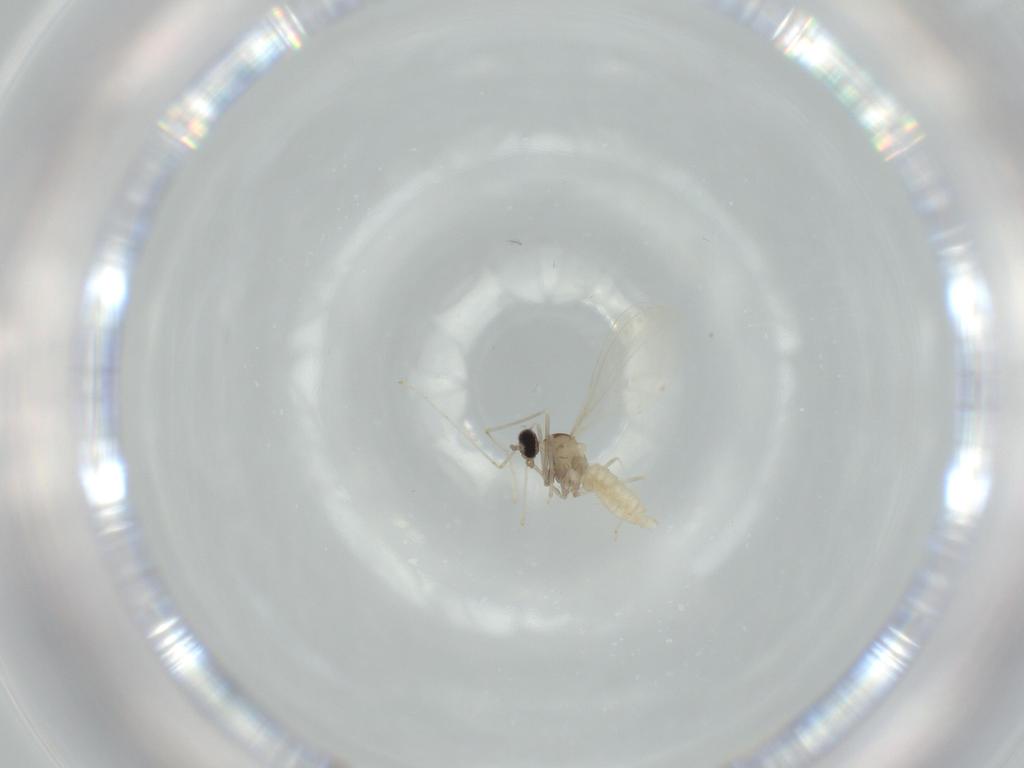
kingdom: Animalia
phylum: Arthropoda
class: Insecta
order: Diptera
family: Cecidomyiidae
